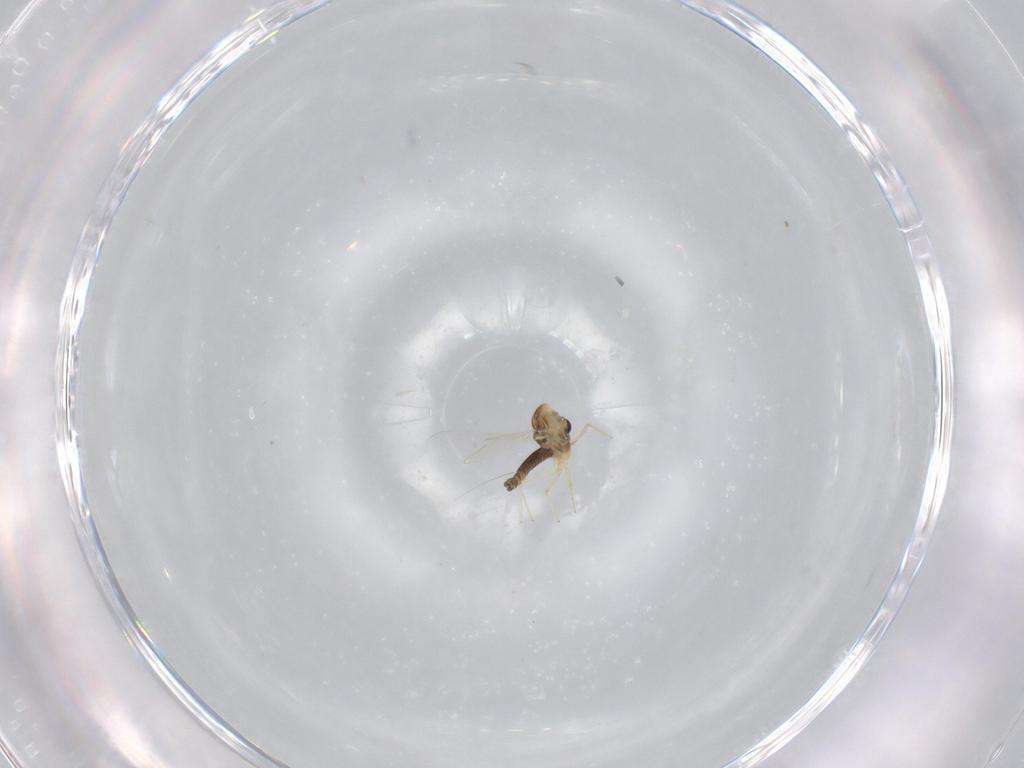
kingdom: Animalia
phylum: Arthropoda
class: Insecta
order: Diptera
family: Chironomidae
